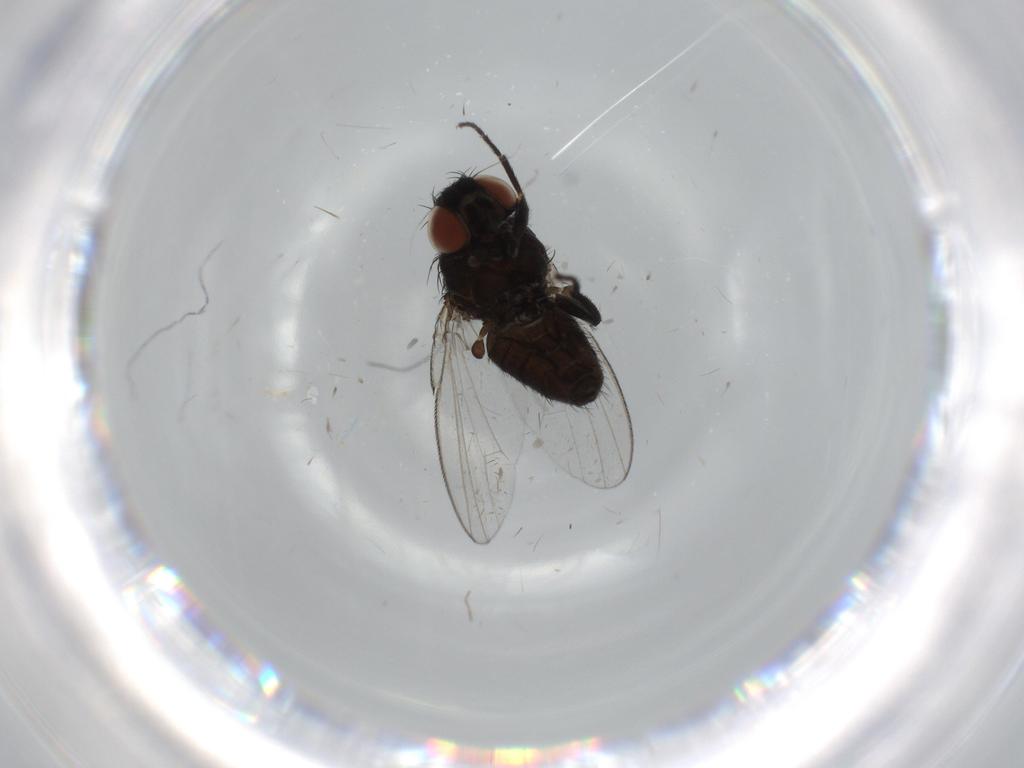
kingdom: Animalia
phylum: Arthropoda
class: Insecta
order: Diptera
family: Milichiidae
